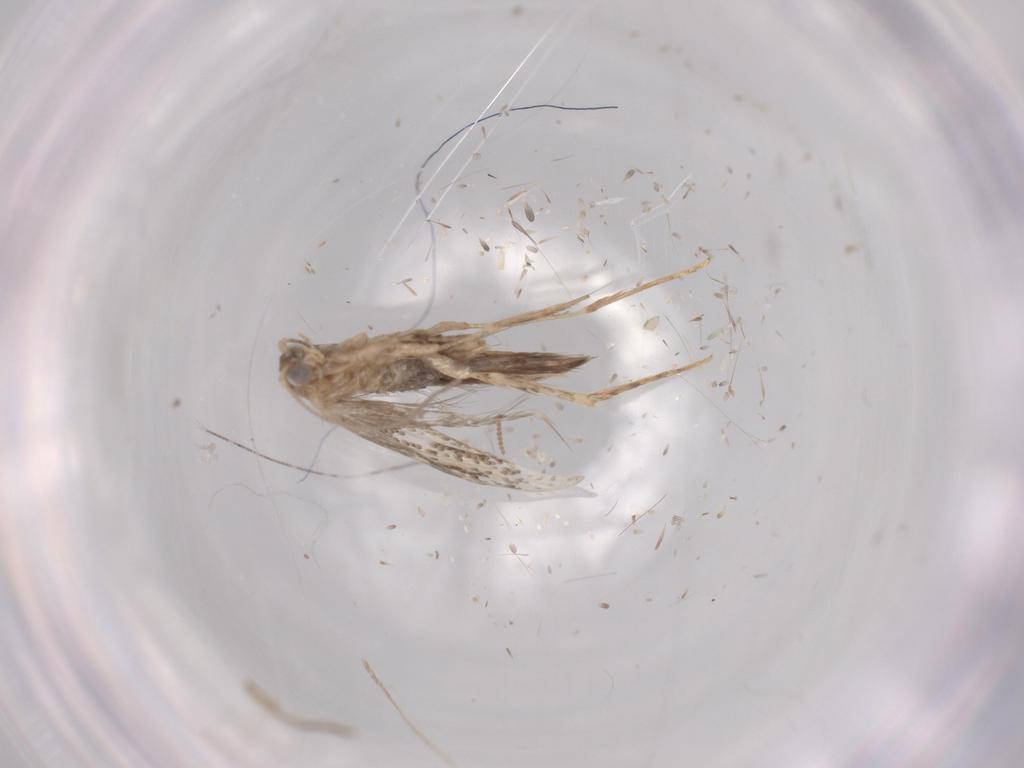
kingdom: Animalia
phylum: Arthropoda
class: Insecta
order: Lepidoptera
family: Tineidae
